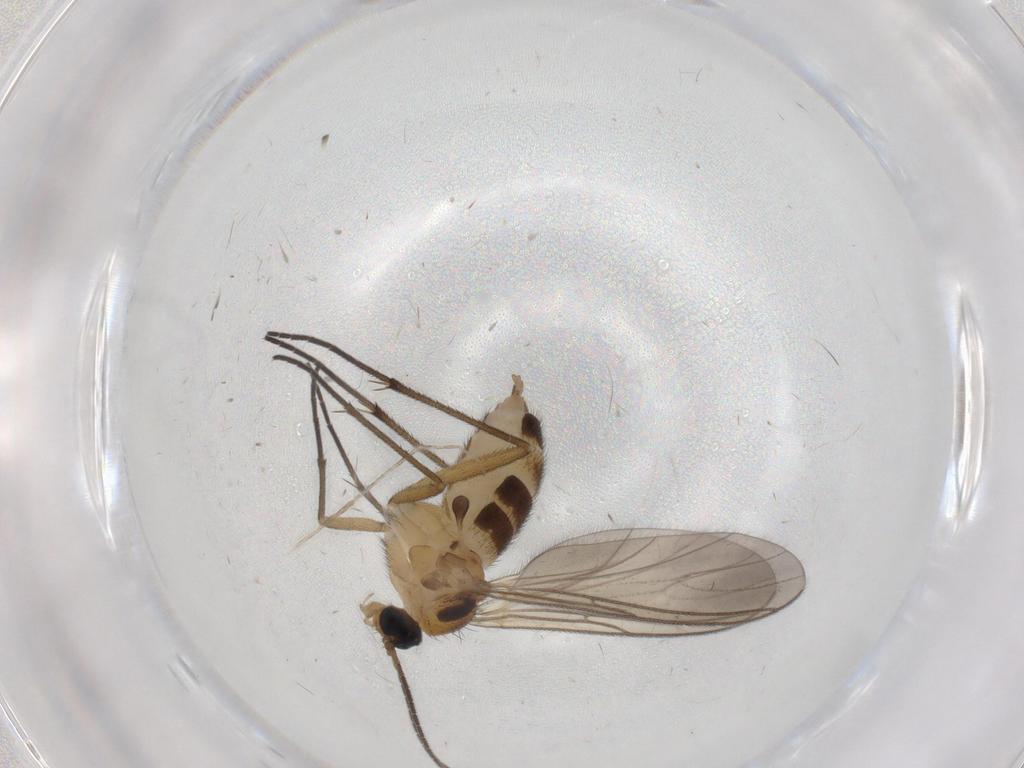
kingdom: Animalia
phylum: Arthropoda
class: Insecta
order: Diptera
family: Cecidomyiidae
